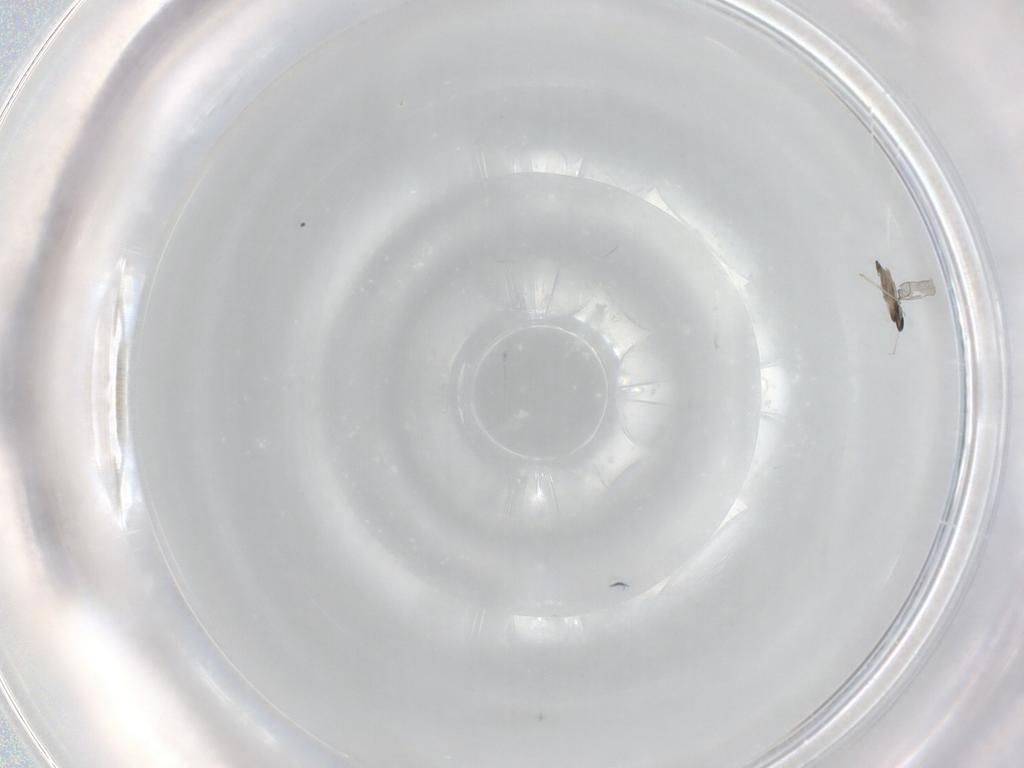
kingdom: Animalia
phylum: Arthropoda
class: Insecta
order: Diptera
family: Cecidomyiidae
